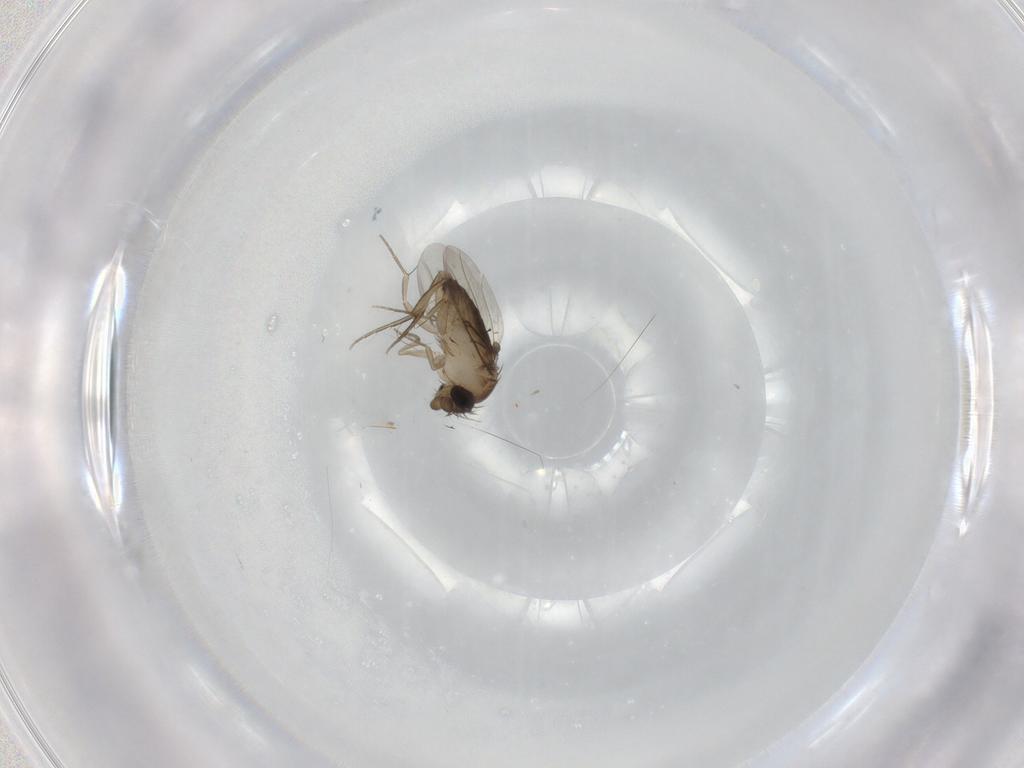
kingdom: Animalia
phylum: Arthropoda
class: Insecta
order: Diptera
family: Phoridae
